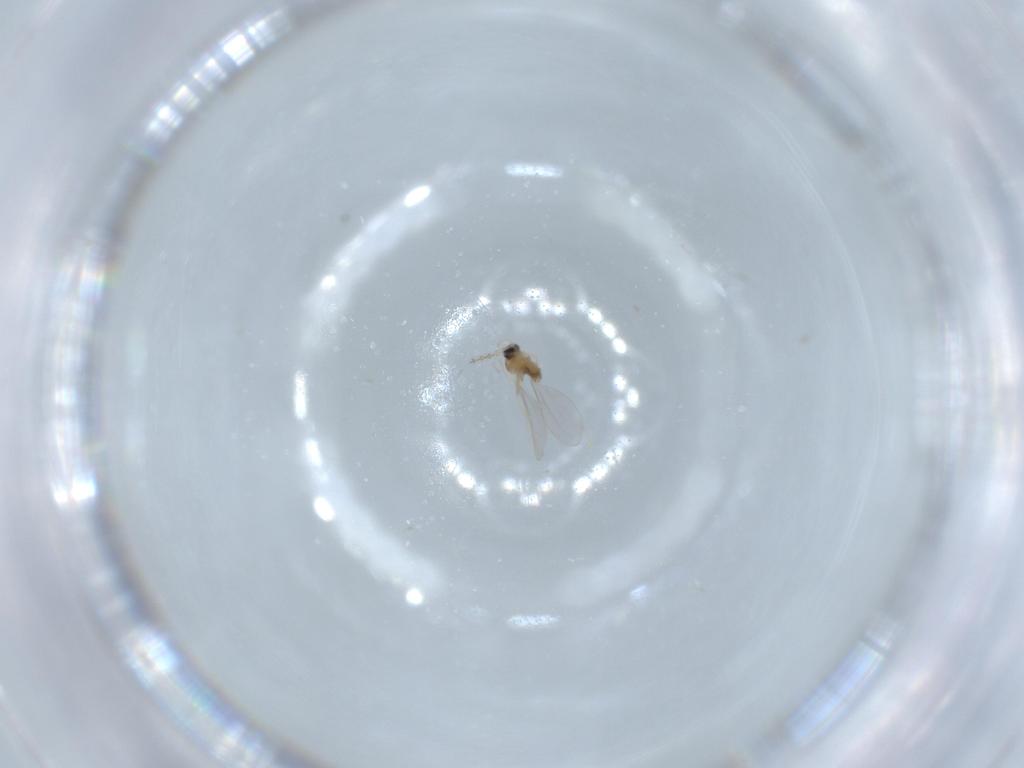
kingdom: Animalia
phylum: Arthropoda
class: Insecta
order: Diptera
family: Cecidomyiidae
